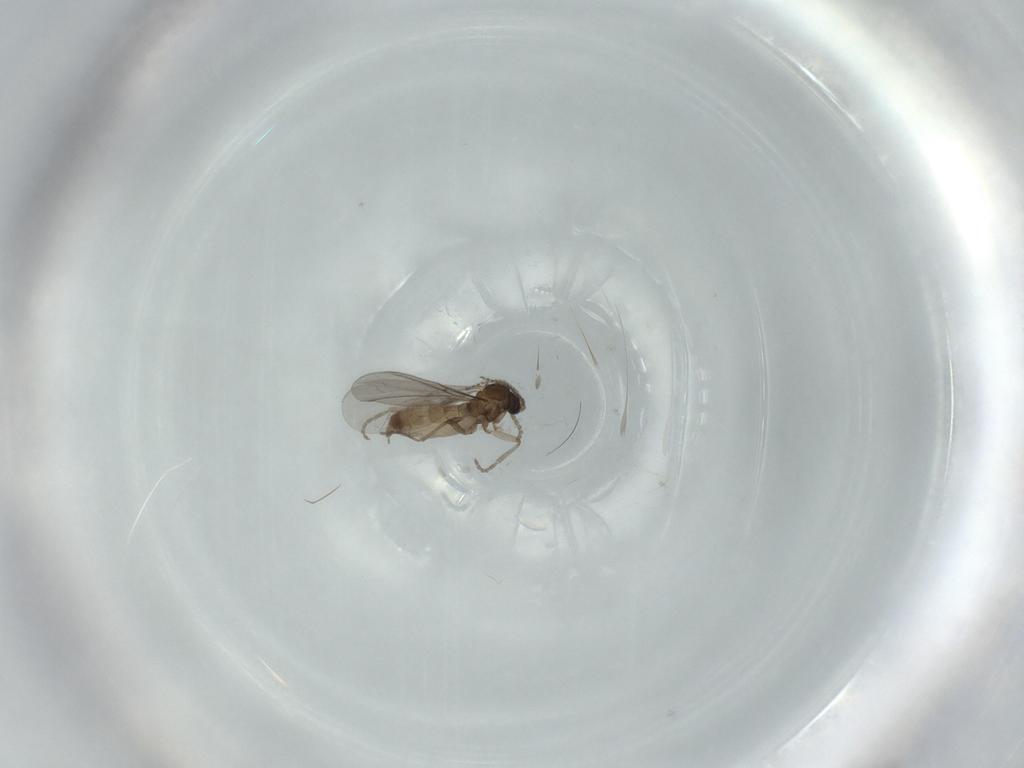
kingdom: Animalia
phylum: Arthropoda
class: Insecta
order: Diptera
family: Sciaridae
